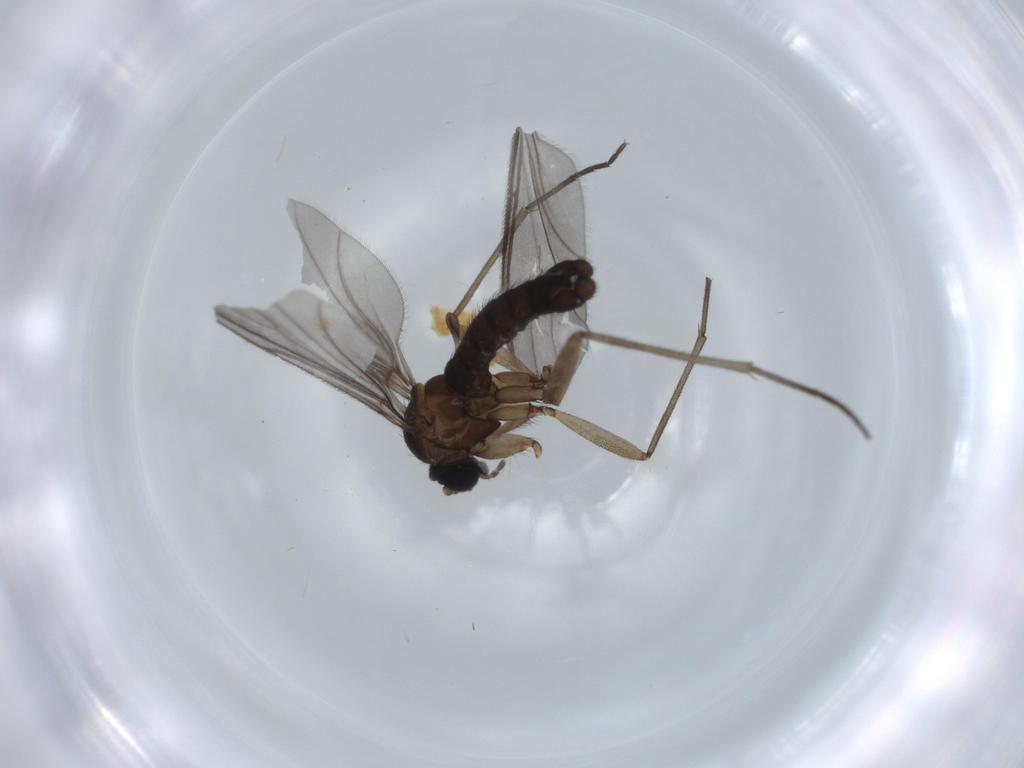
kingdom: Animalia
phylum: Arthropoda
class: Insecta
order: Diptera
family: Sciaridae
